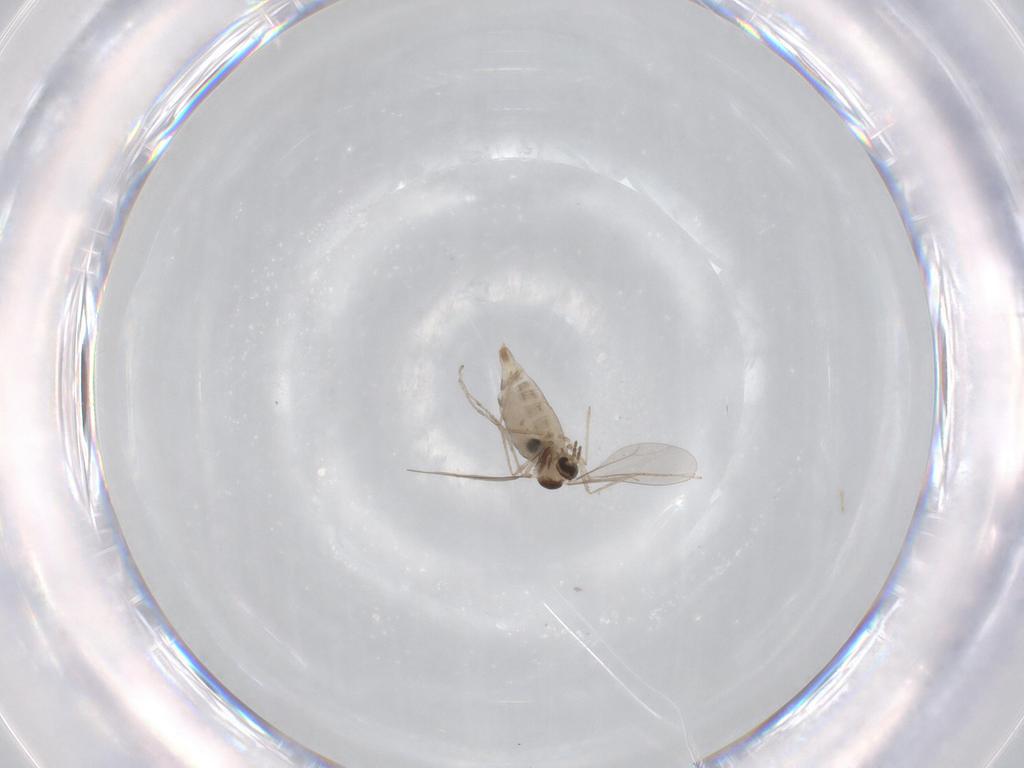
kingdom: Animalia
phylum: Arthropoda
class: Insecta
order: Diptera
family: Chironomidae
